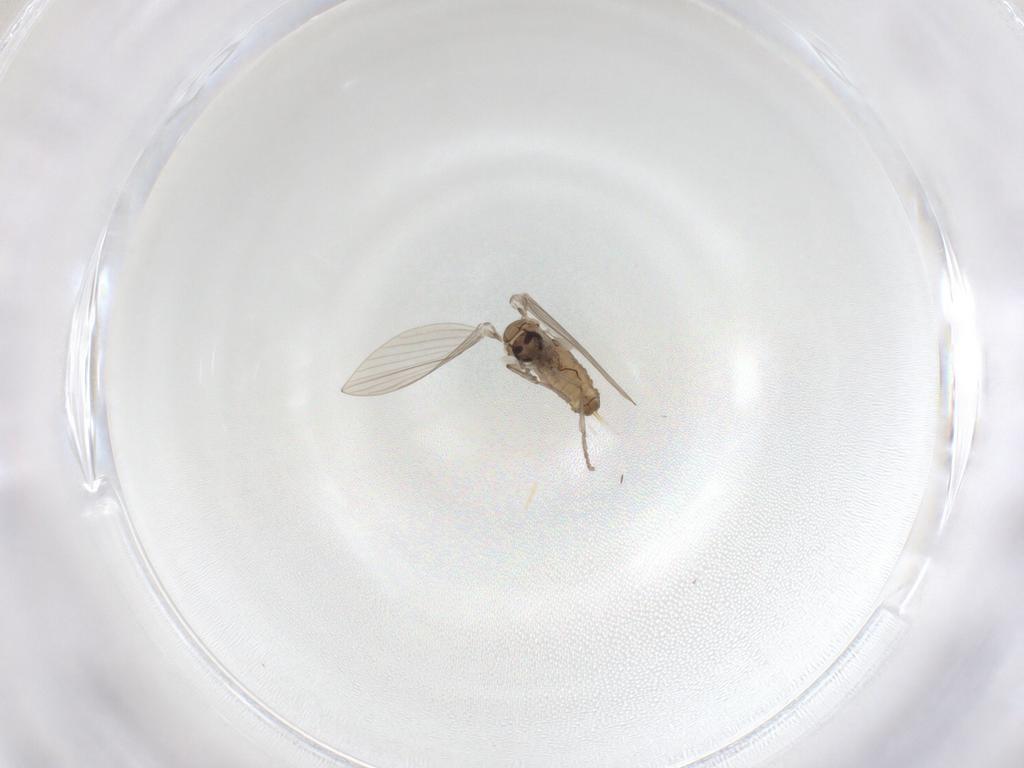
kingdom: Animalia
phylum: Arthropoda
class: Insecta
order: Diptera
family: Psychodidae
